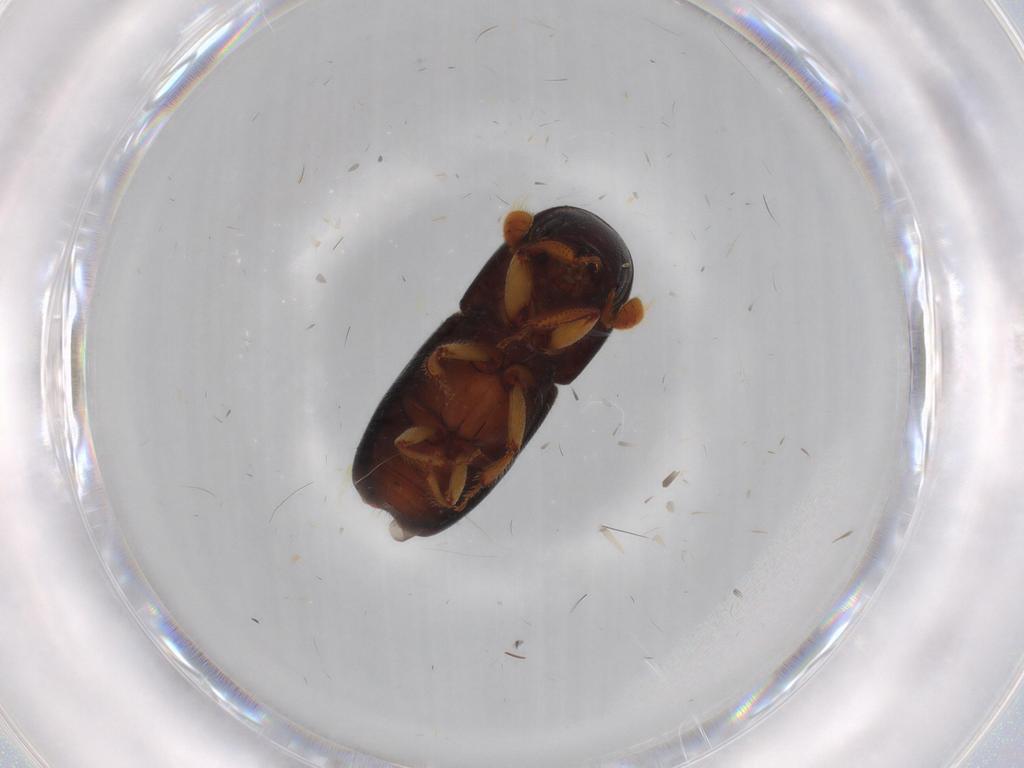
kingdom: Animalia
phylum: Arthropoda
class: Insecta
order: Coleoptera
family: Curculionidae
